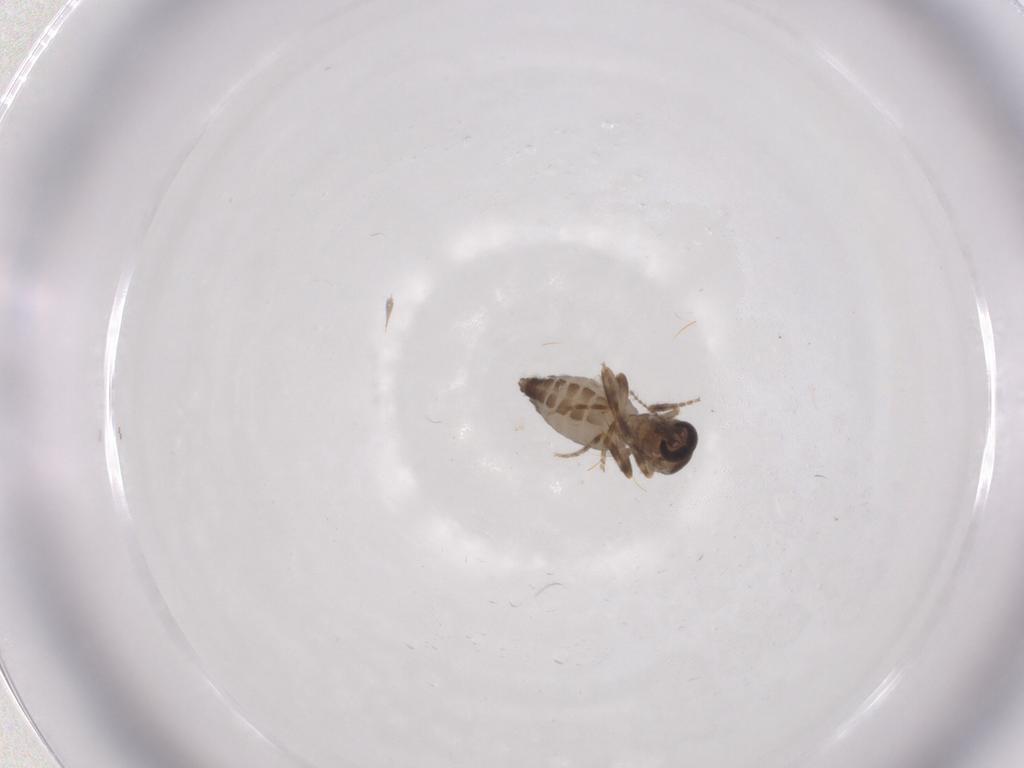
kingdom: Animalia
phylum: Arthropoda
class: Insecta
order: Diptera
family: Ceratopogonidae
